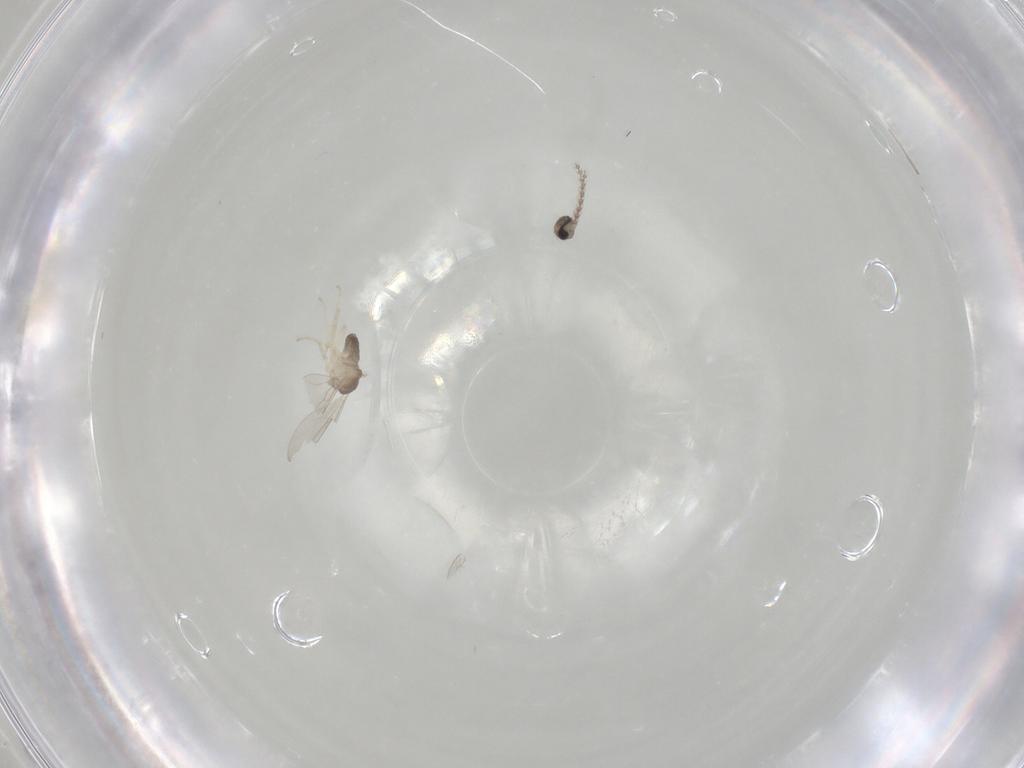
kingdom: Animalia
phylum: Arthropoda
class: Insecta
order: Diptera
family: Cecidomyiidae
